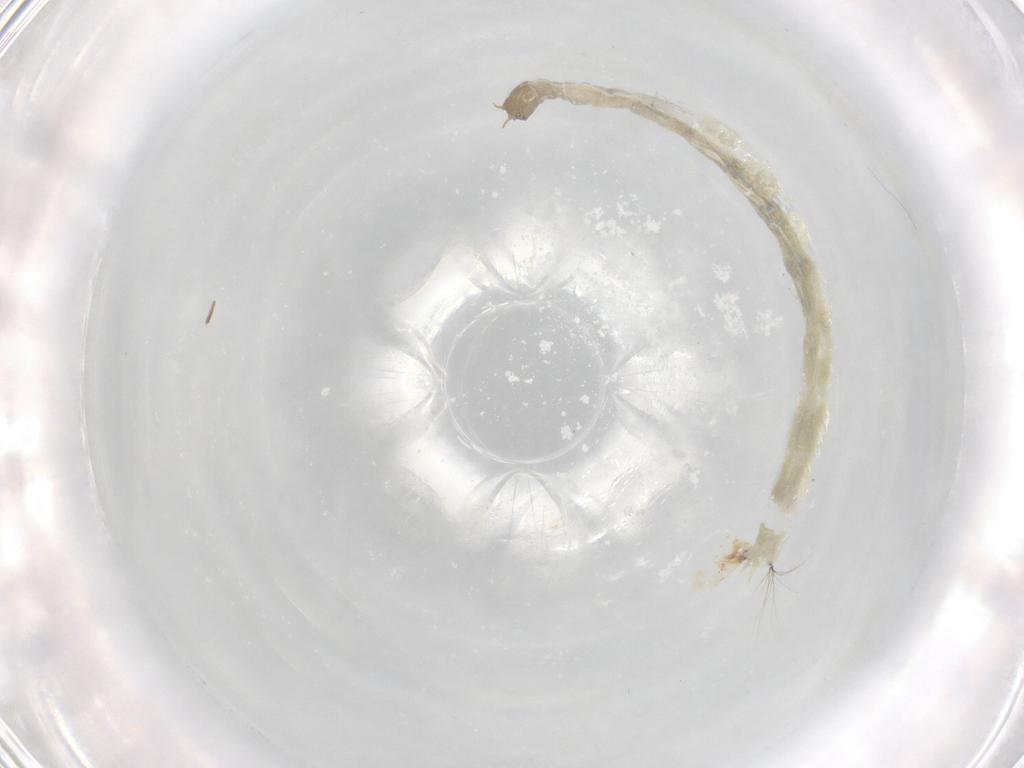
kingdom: Animalia
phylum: Arthropoda
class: Insecta
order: Diptera
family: Chironomidae
